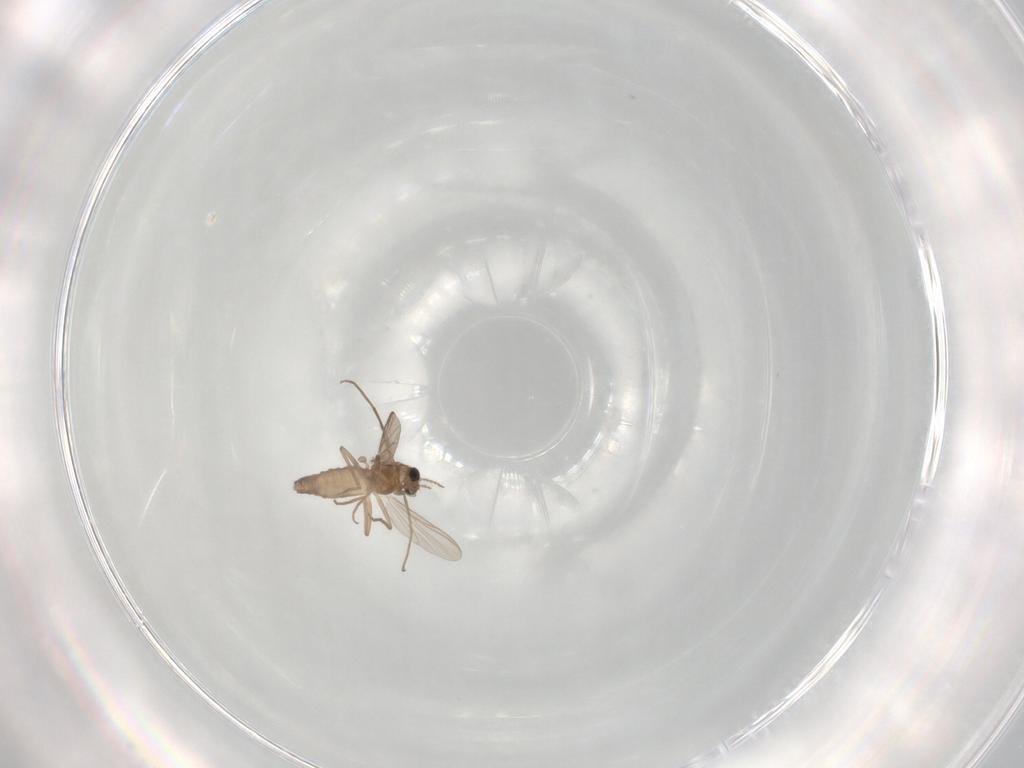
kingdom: Animalia
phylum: Arthropoda
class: Insecta
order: Diptera
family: Chironomidae
